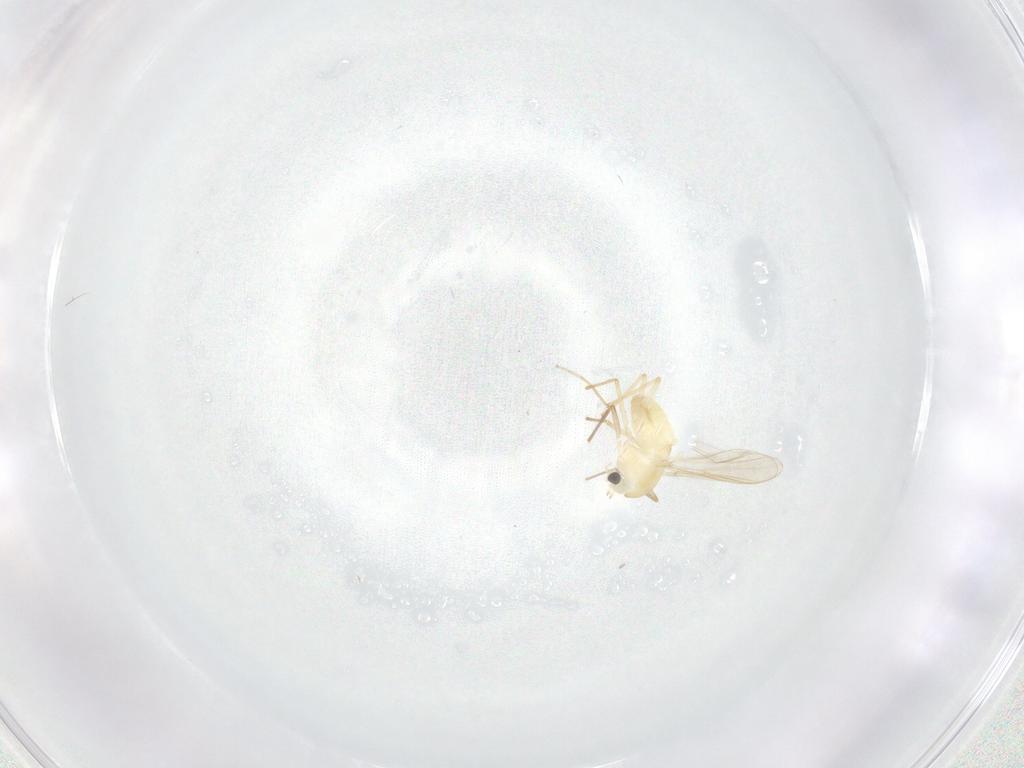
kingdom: Animalia
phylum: Arthropoda
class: Insecta
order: Diptera
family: Chironomidae
